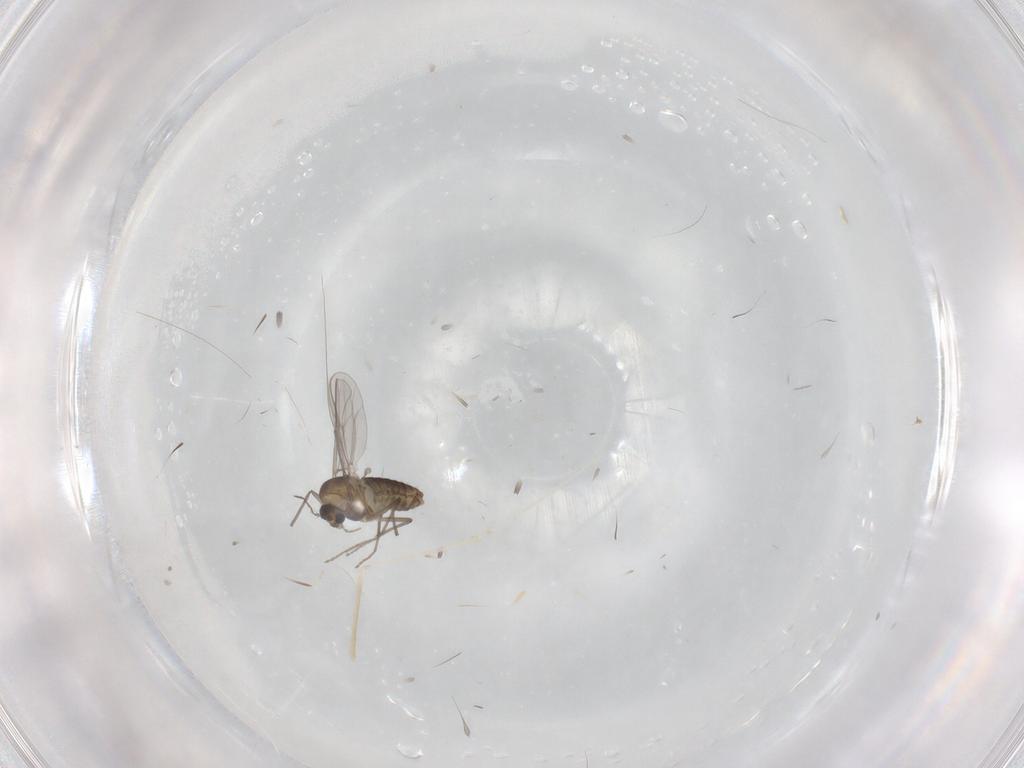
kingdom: Animalia
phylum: Arthropoda
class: Insecta
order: Diptera
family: Chironomidae
